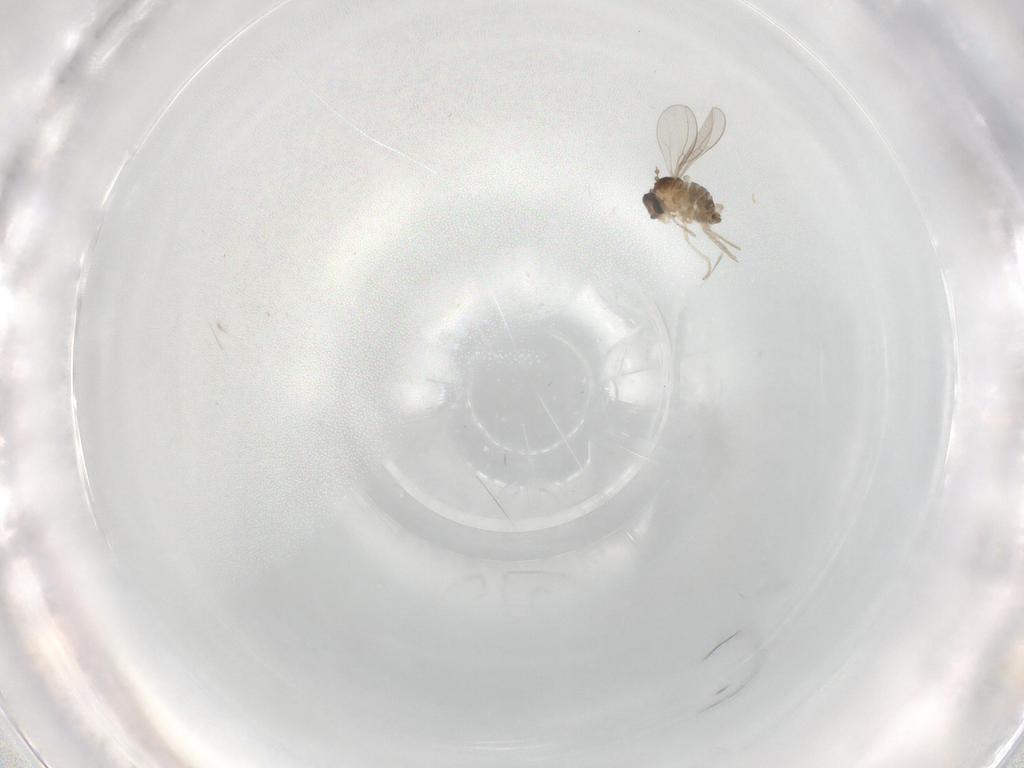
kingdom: Animalia
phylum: Arthropoda
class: Insecta
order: Diptera
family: Cecidomyiidae
